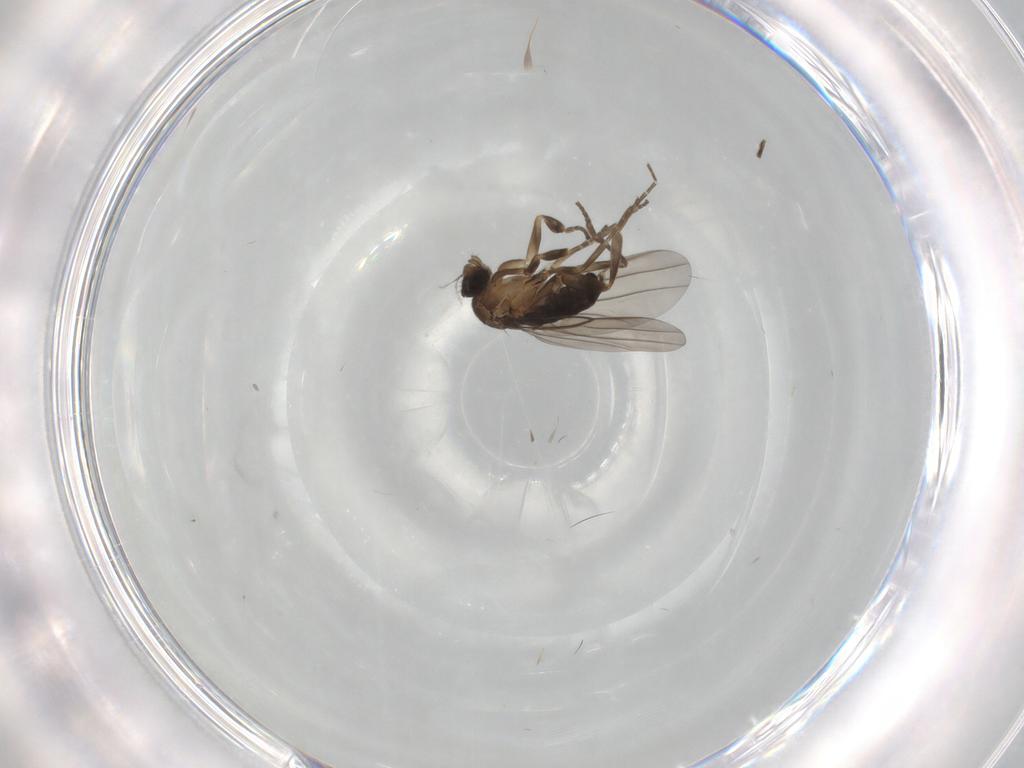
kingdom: Animalia
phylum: Arthropoda
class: Insecta
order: Diptera
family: Phoridae
